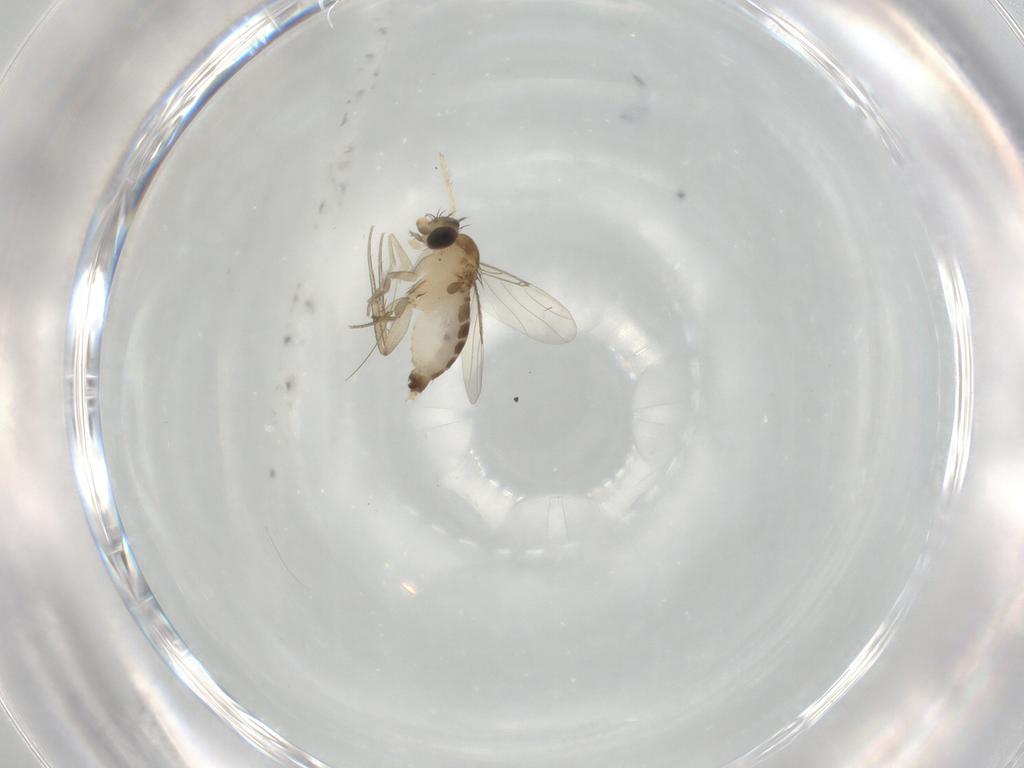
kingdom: Animalia
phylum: Arthropoda
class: Insecta
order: Diptera
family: Phoridae
